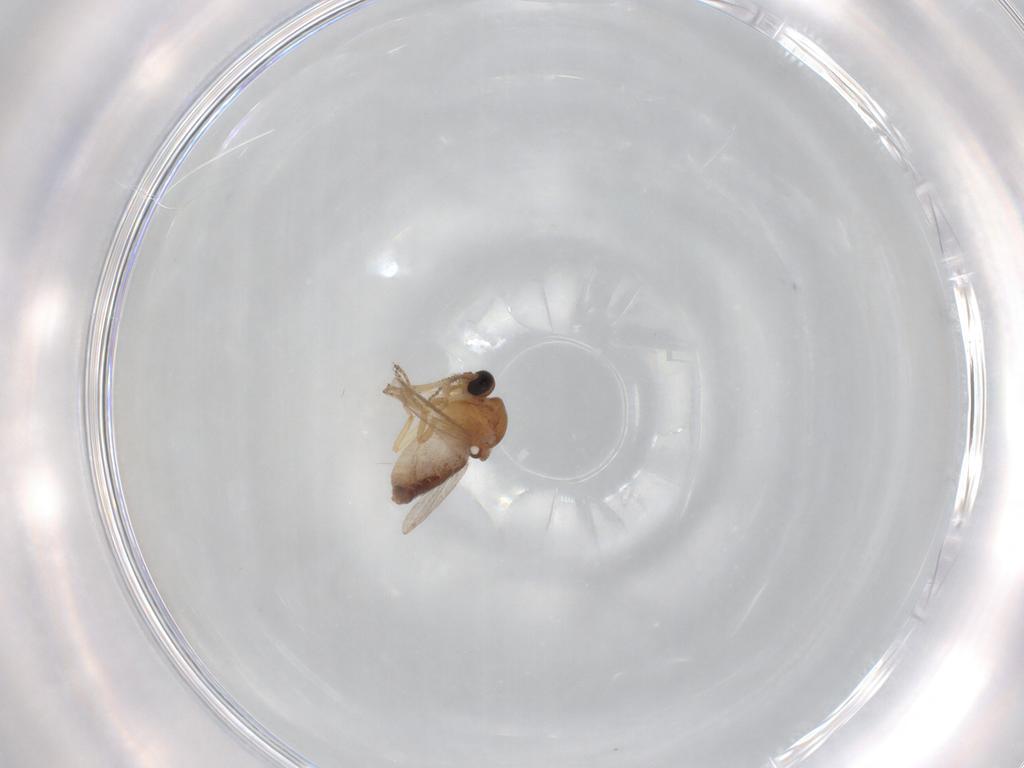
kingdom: Animalia
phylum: Arthropoda
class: Insecta
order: Diptera
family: Ceratopogonidae
